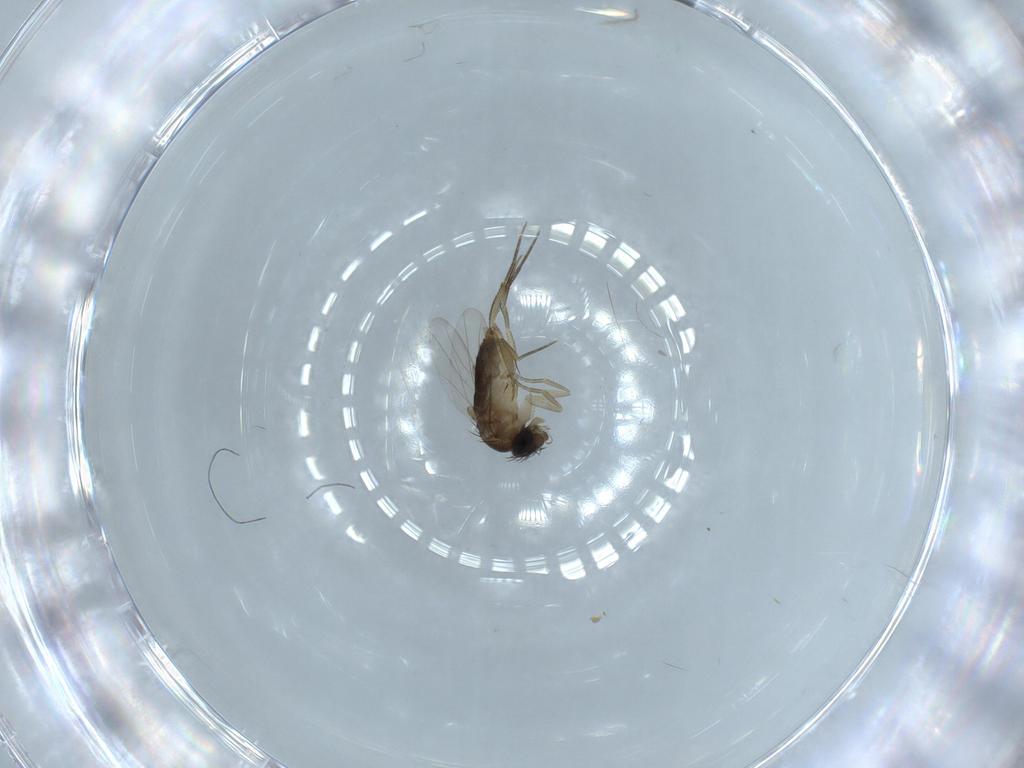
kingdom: Animalia
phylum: Arthropoda
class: Insecta
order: Diptera
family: Phoridae
